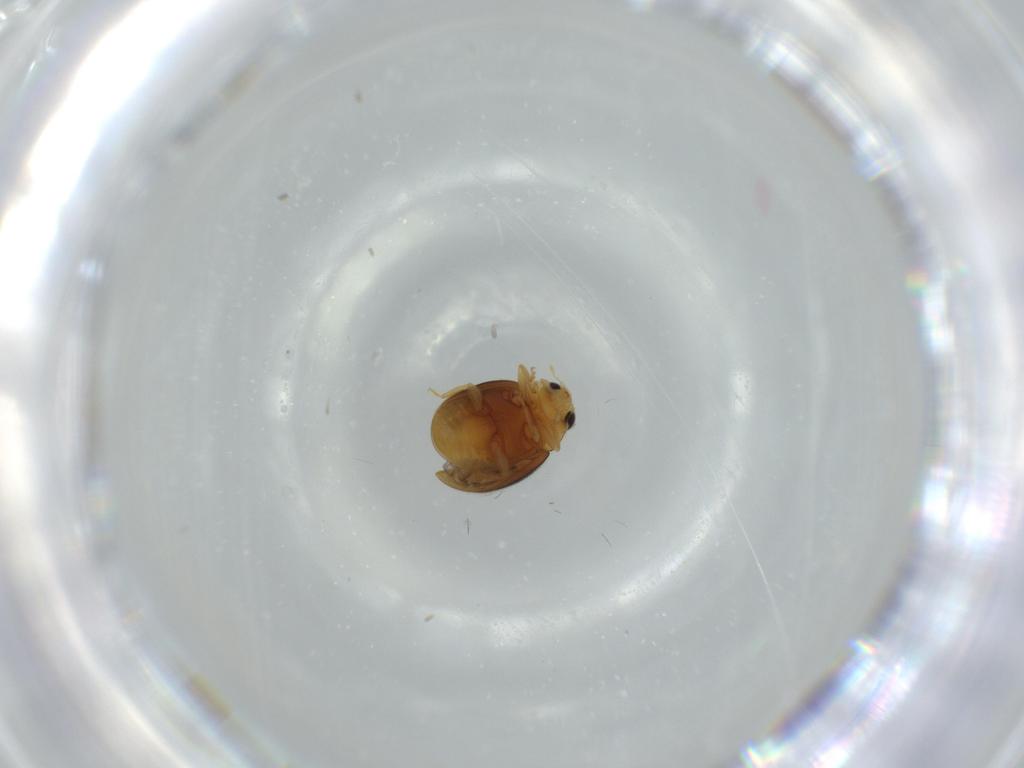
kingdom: Animalia
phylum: Arthropoda
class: Insecta
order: Coleoptera
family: Coccinellidae
